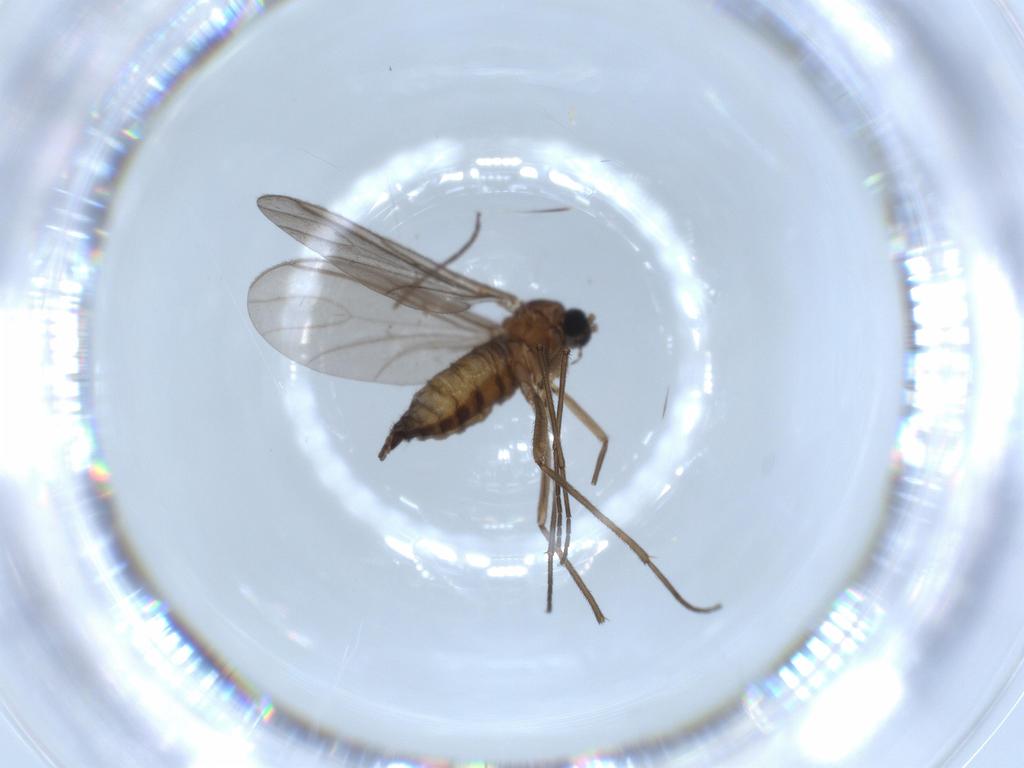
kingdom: Animalia
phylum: Arthropoda
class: Insecta
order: Diptera
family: Sciaridae
